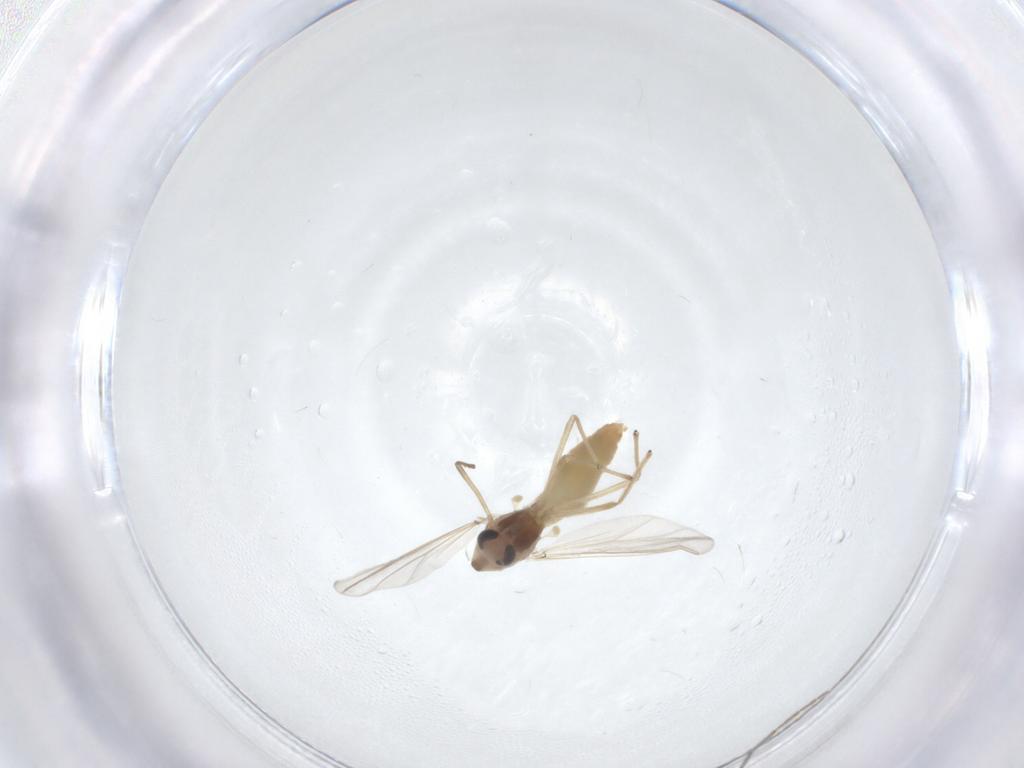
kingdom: Animalia
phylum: Arthropoda
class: Insecta
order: Diptera
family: Chironomidae
